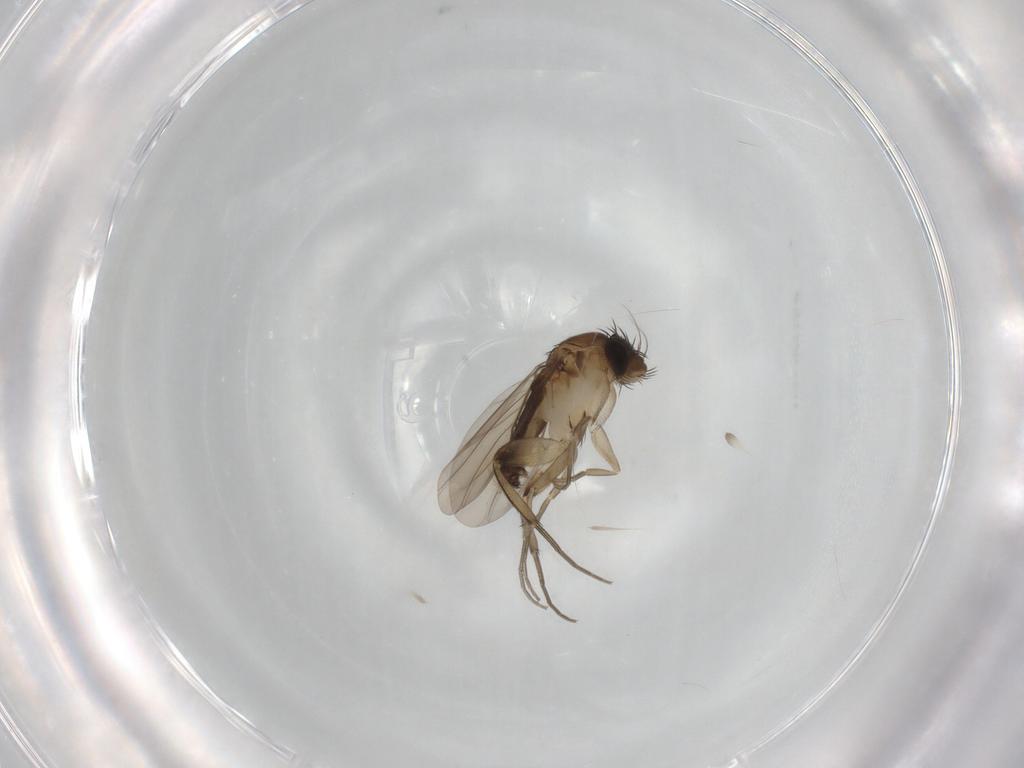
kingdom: Animalia
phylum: Arthropoda
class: Insecta
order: Diptera
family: Phoridae
